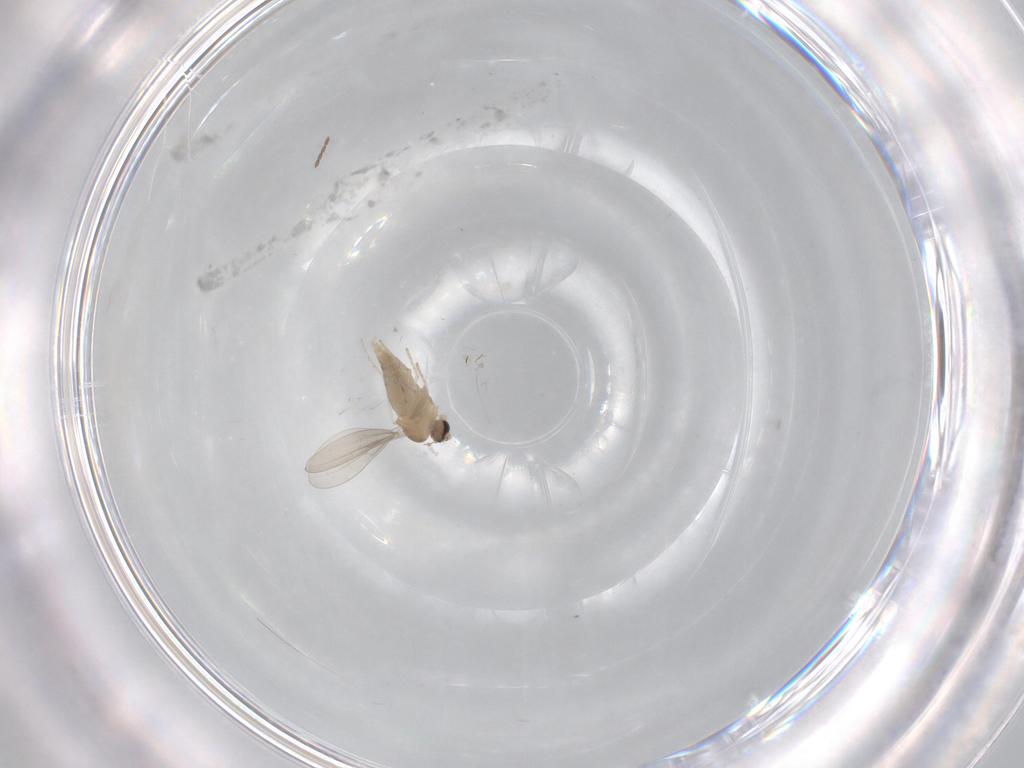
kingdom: Animalia
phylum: Arthropoda
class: Insecta
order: Diptera
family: Cecidomyiidae
